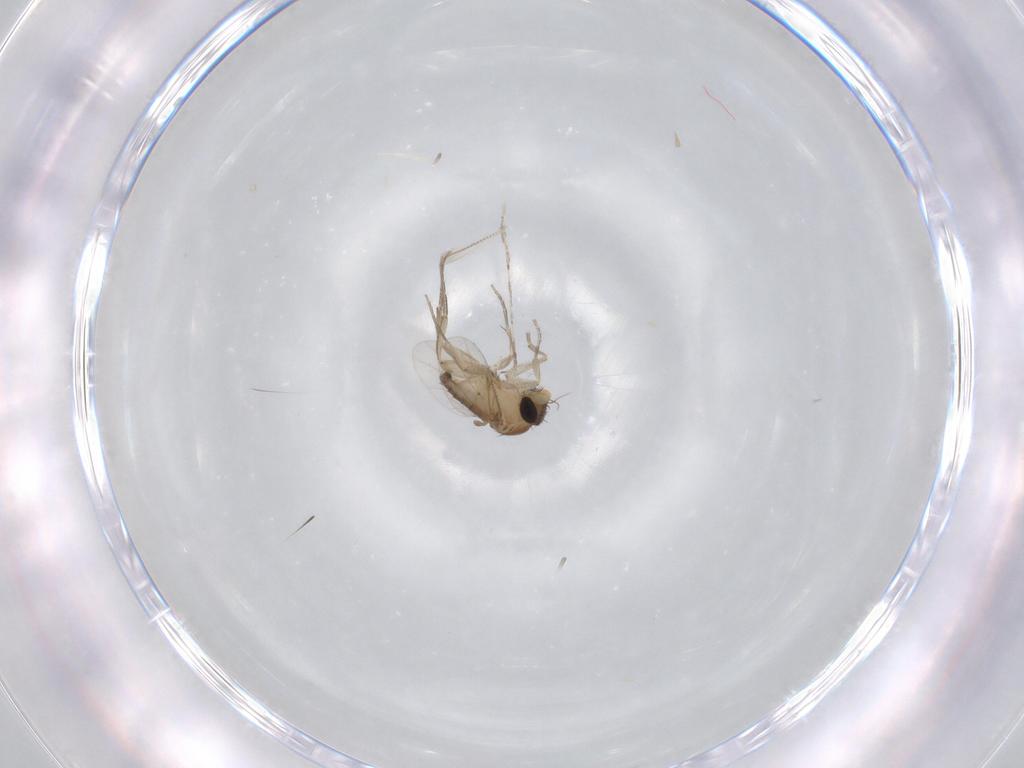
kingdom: Animalia
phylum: Arthropoda
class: Insecta
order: Diptera
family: Phoridae
